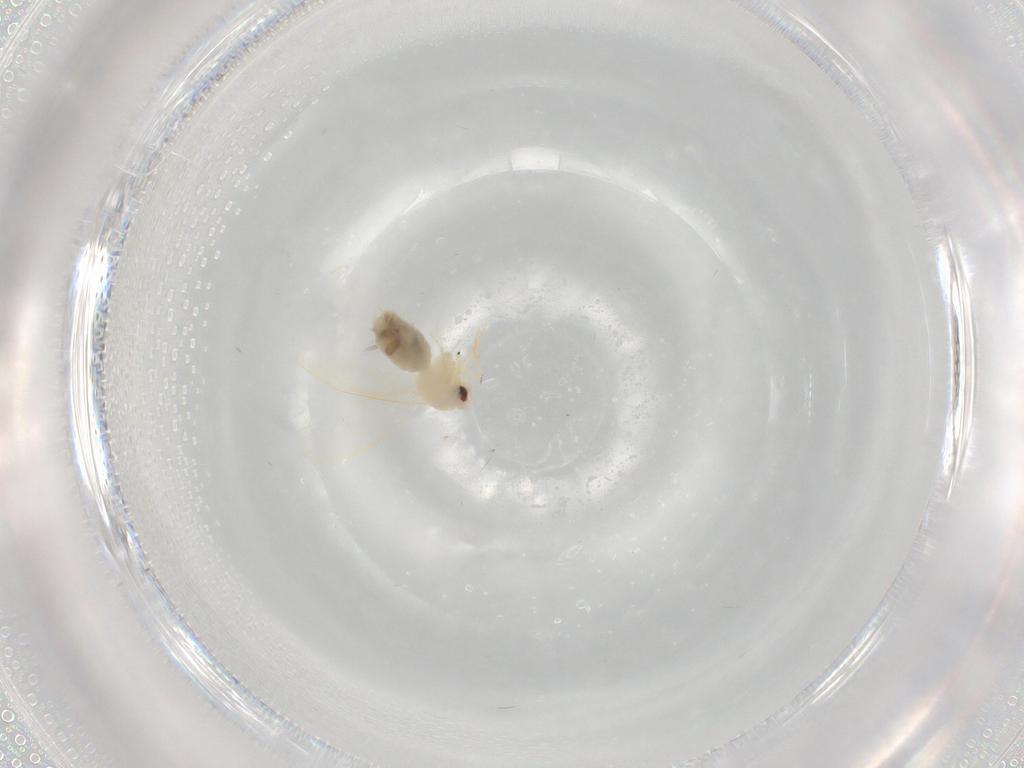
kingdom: Animalia
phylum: Arthropoda
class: Insecta
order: Hemiptera
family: Aleyrodidae
